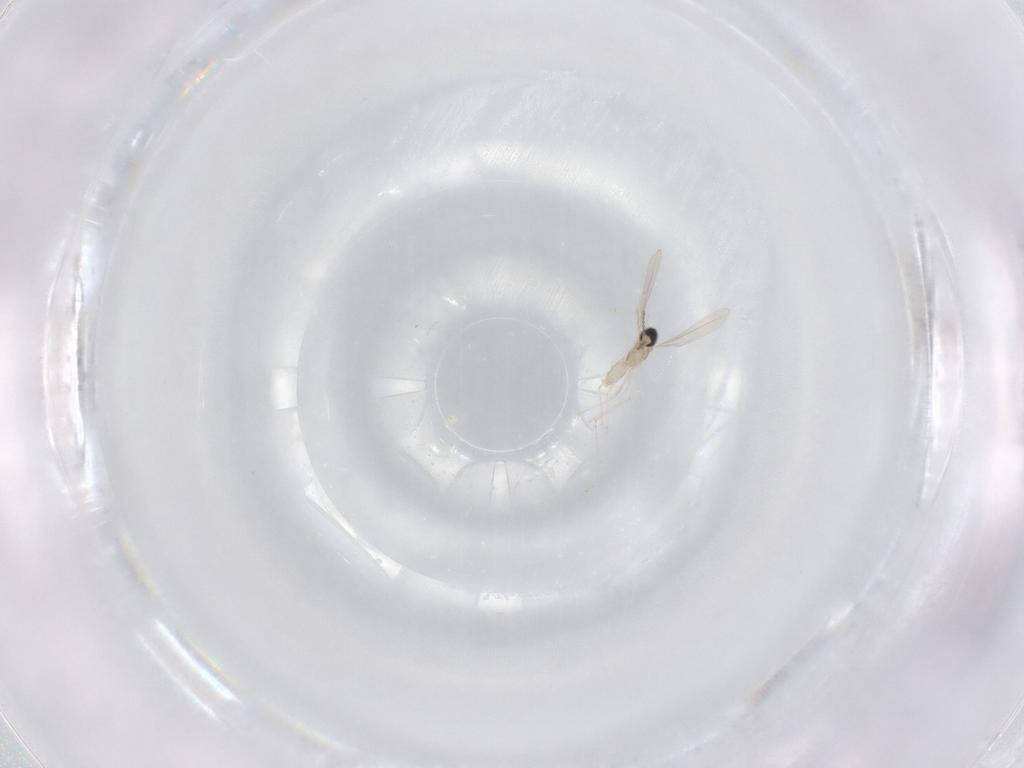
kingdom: Animalia
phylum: Arthropoda
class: Insecta
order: Diptera
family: Cecidomyiidae
